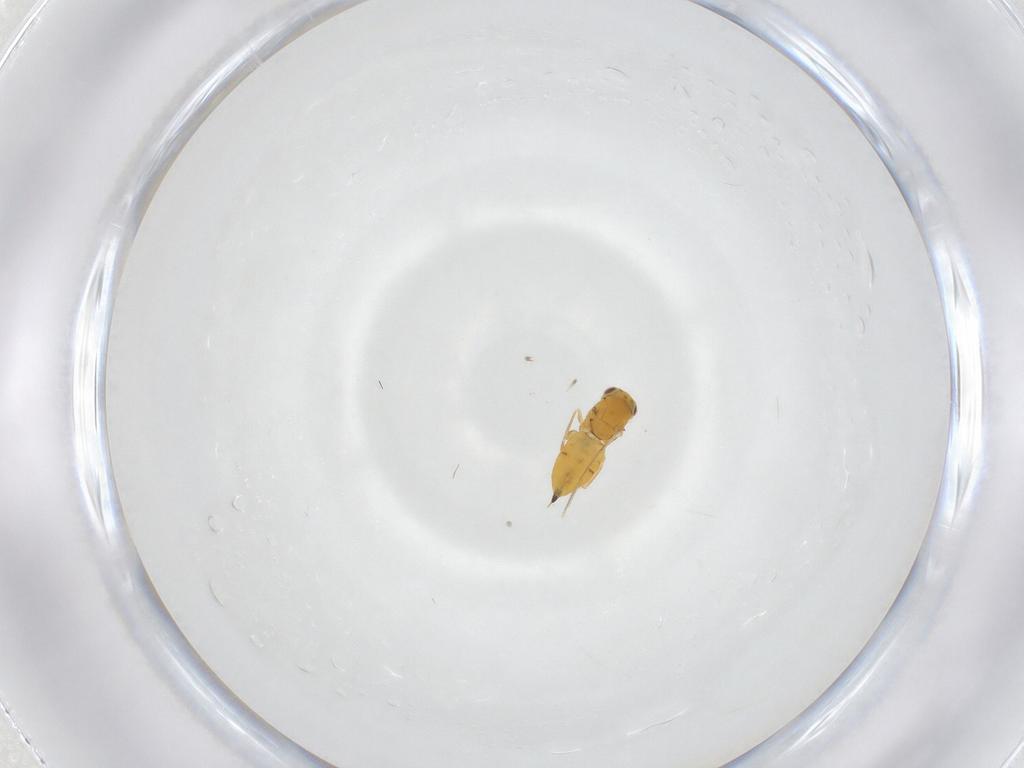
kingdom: Animalia
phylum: Arthropoda
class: Insecta
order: Hymenoptera
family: Eulophidae
